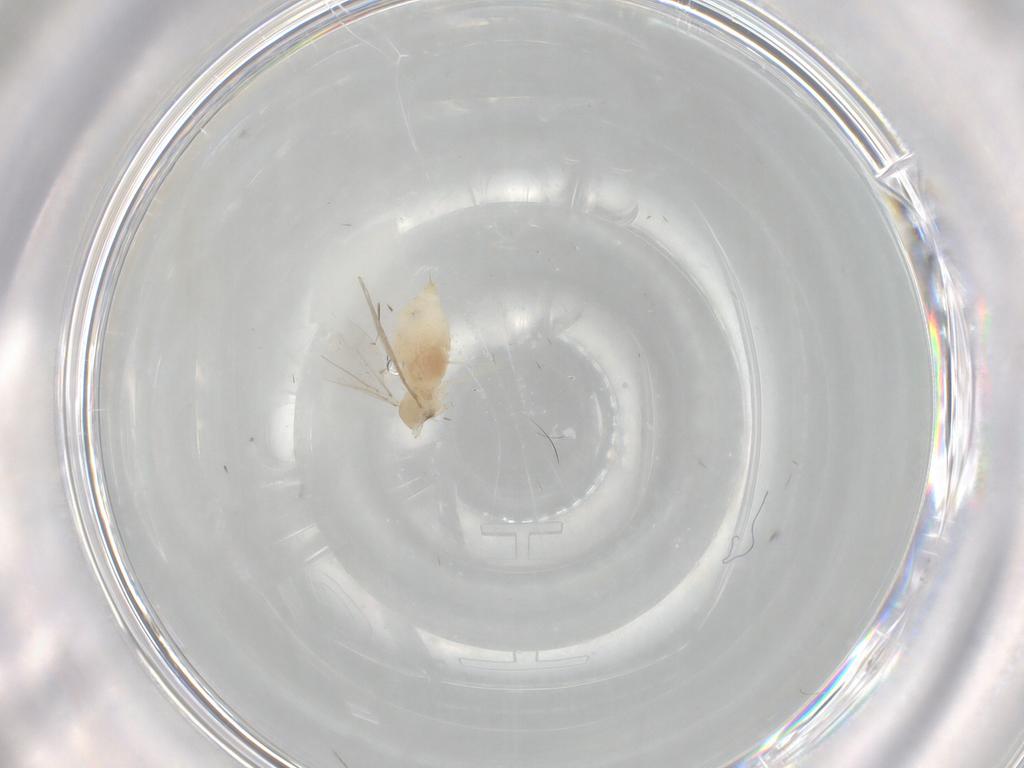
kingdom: Animalia
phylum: Arthropoda
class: Insecta
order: Diptera
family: Cecidomyiidae
